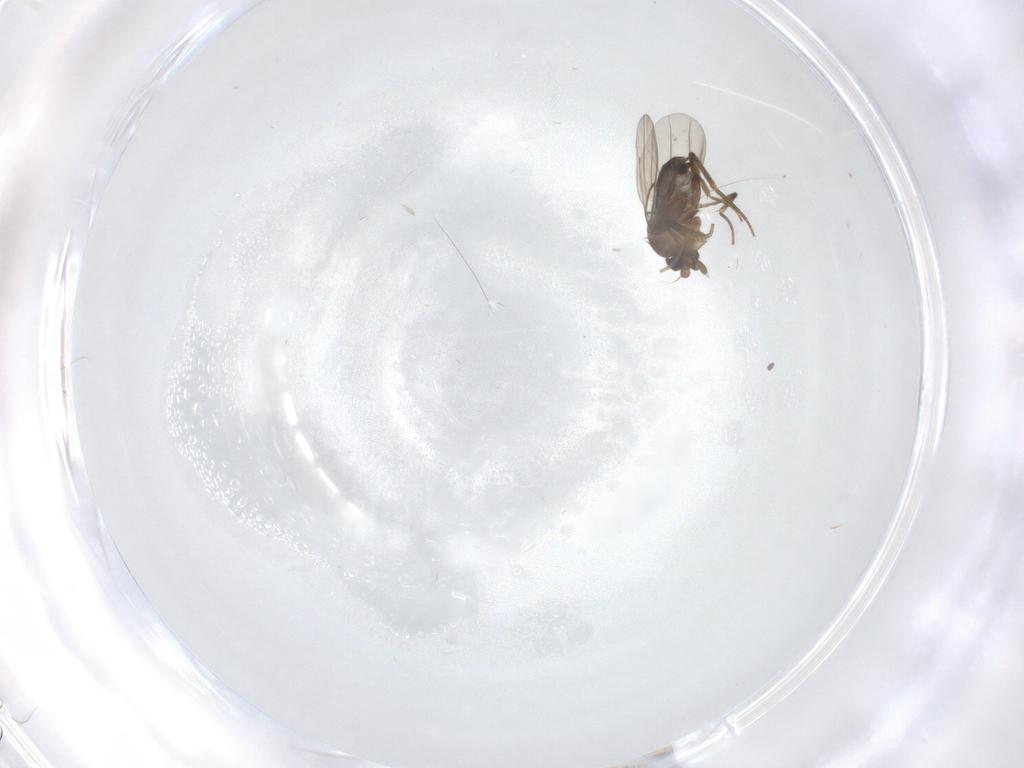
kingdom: Animalia
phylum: Arthropoda
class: Insecta
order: Diptera
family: Phoridae
